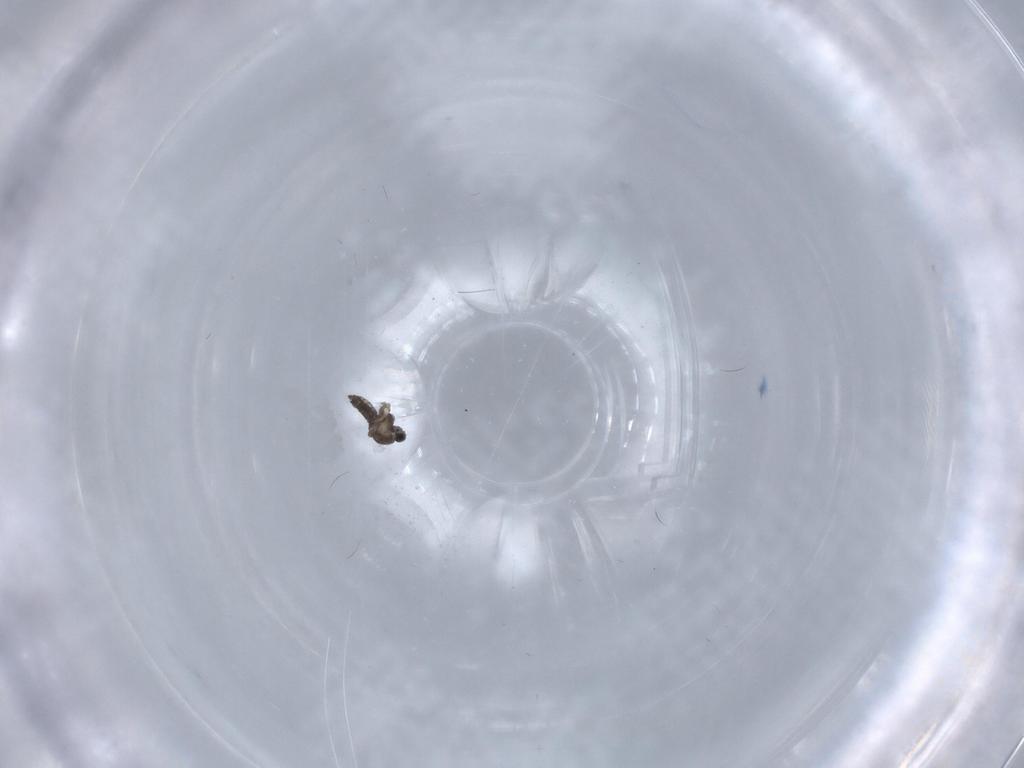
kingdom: Animalia
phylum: Arthropoda
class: Insecta
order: Diptera
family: Cecidomyiidae
